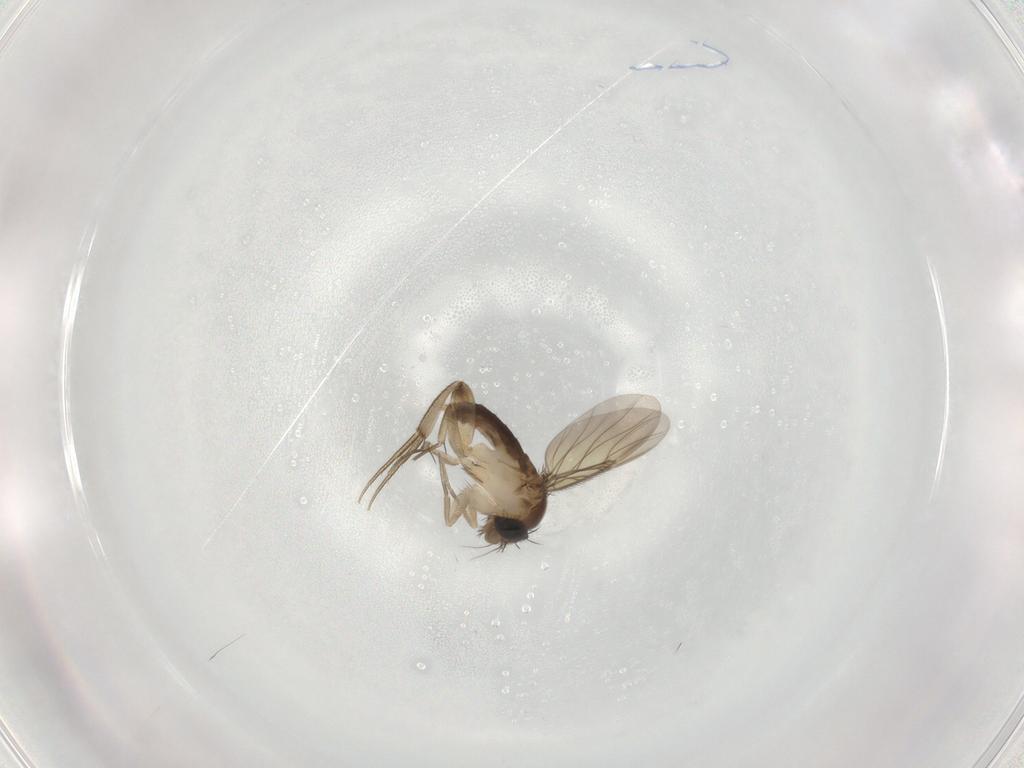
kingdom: Animalia
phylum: Arthropoda
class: Insecta
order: Diptera
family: Phoridae
